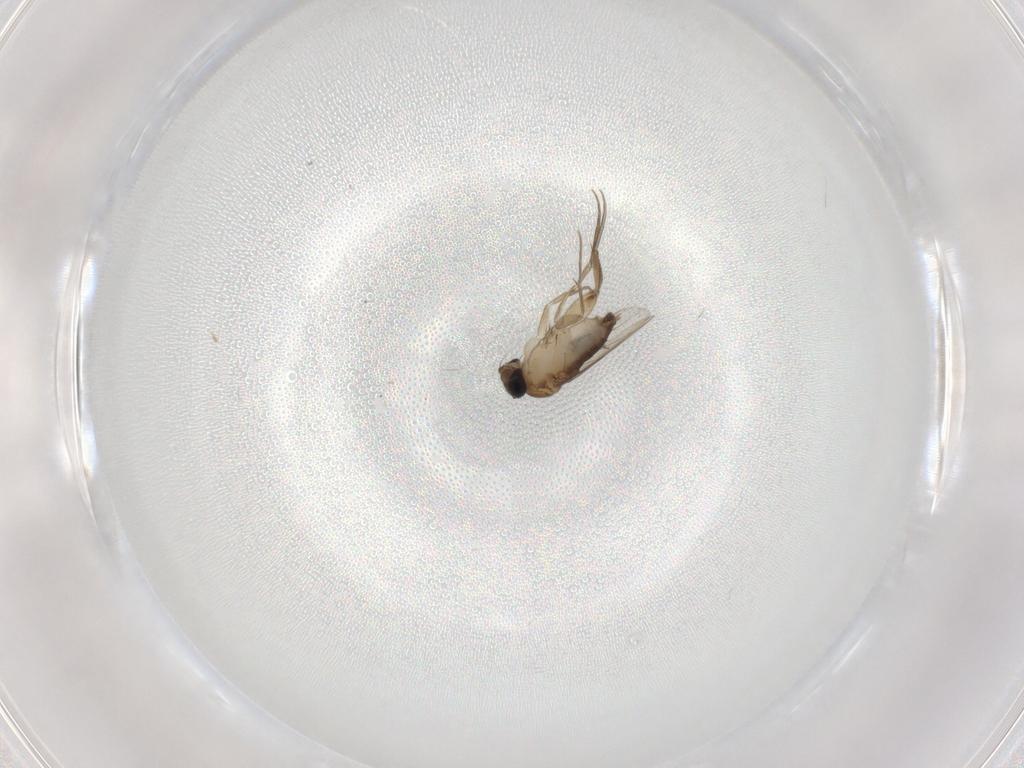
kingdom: Animalia
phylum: Arthropoda
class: Insecta
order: Diptera
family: Phoridae
